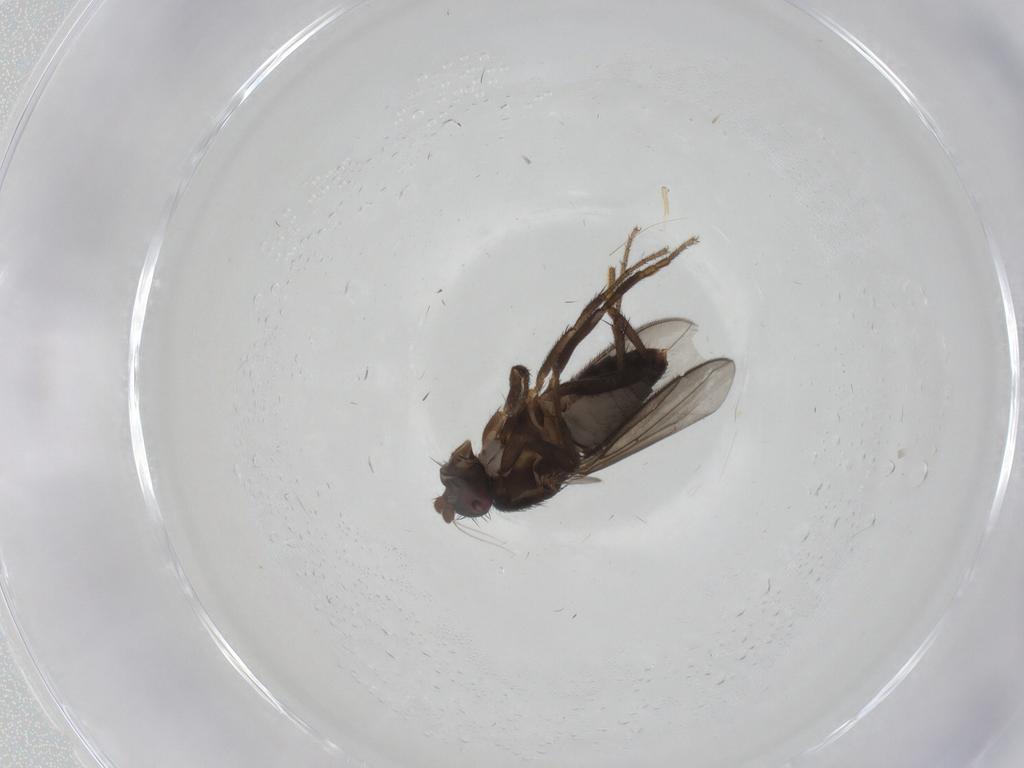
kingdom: Animalia
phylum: Arthropoda
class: Insecta
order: Diptera
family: Sphaeroceridae
